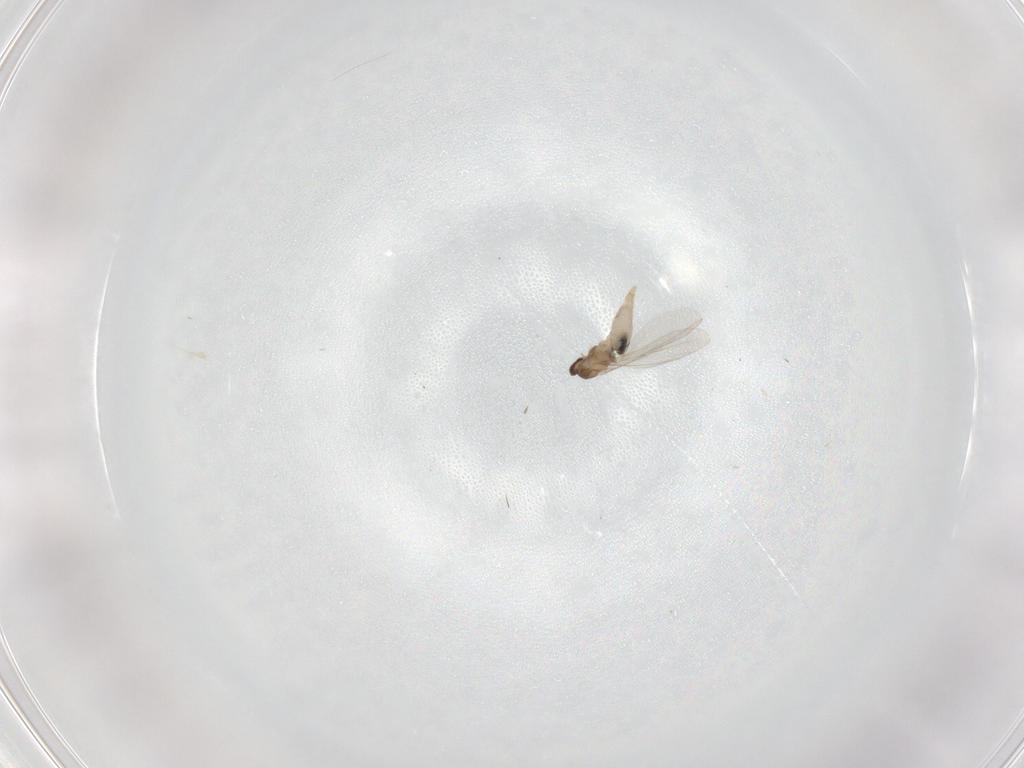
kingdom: Animalia
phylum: Arthropoda
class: Insecta
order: Diptera
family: Cecidomyiidae
